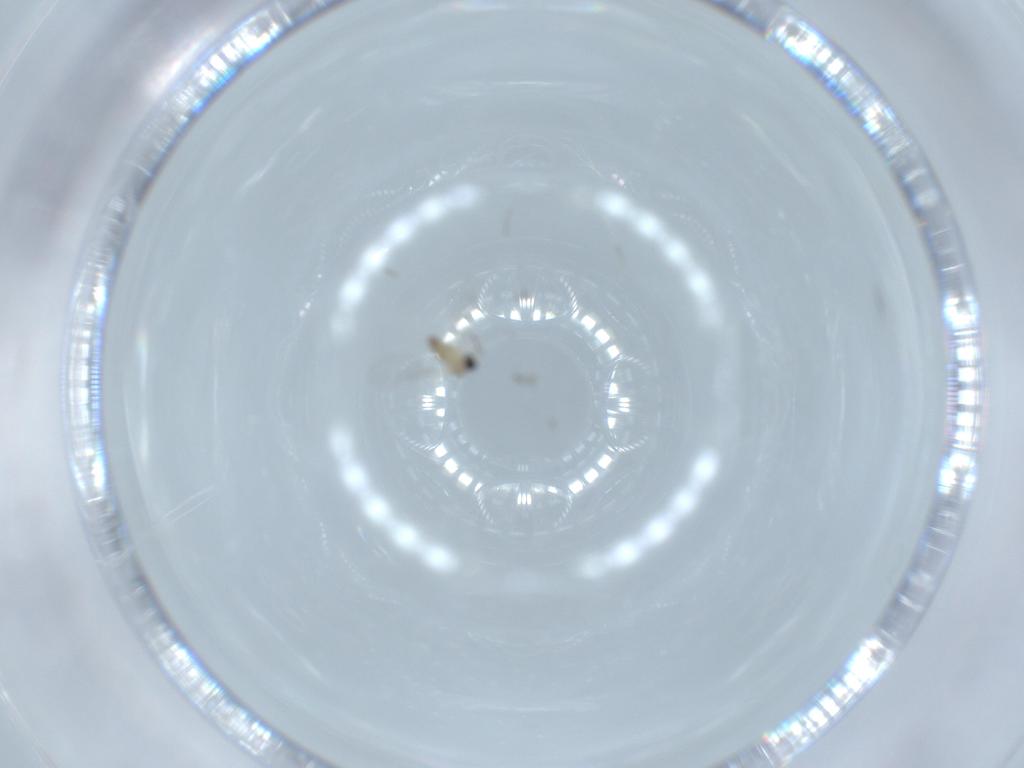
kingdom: Animalia
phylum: Arthropoda
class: Insecta
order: Diptera
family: Cecidomyiidae
